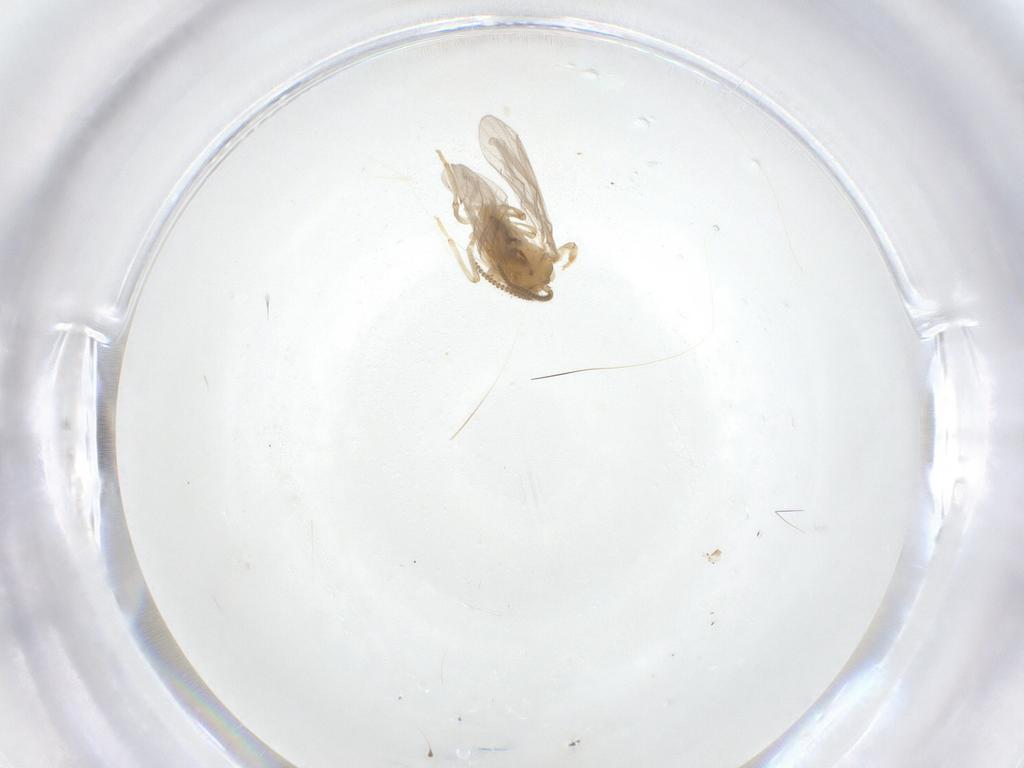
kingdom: Animalia
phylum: Arthropoda
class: Insecta
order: Neuroptera
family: Coniopterygidae
